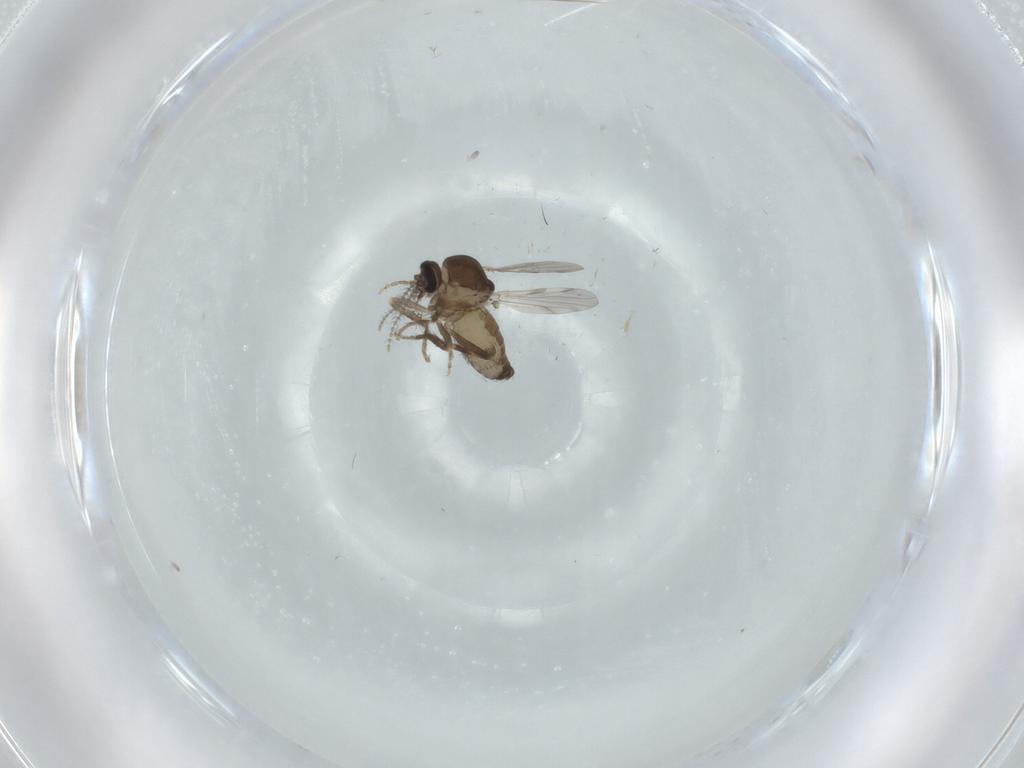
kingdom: Animalia
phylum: Arthropoda
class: Insecta
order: Diptera
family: Ceratopogonidae
